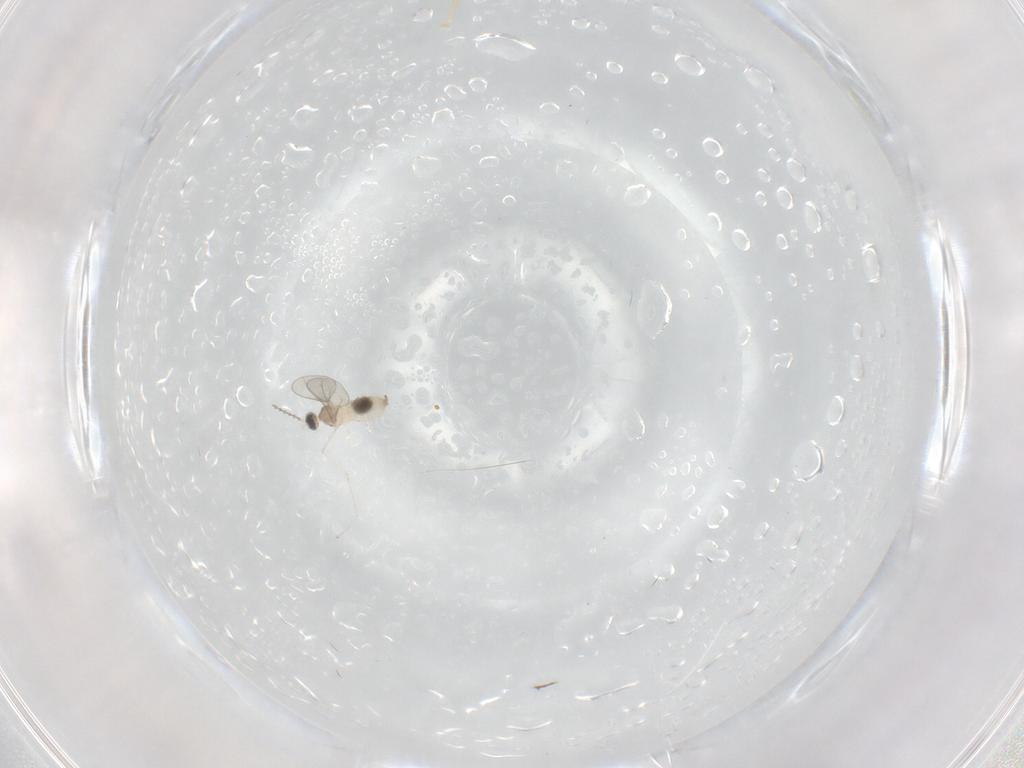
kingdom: Animalia
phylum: Arthropoda
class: Insecta
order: Diptera
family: Cecidomyiidae
